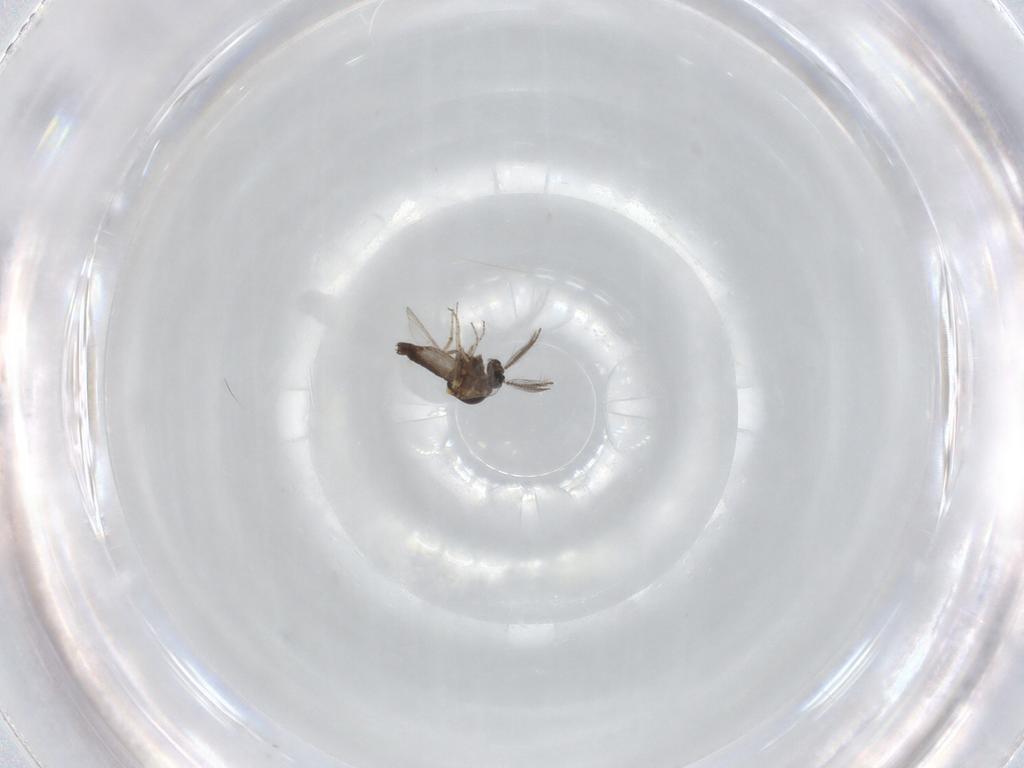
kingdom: Animalia
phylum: Arthropoda
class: Insecta
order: Diptera
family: Ceratopogonidae
